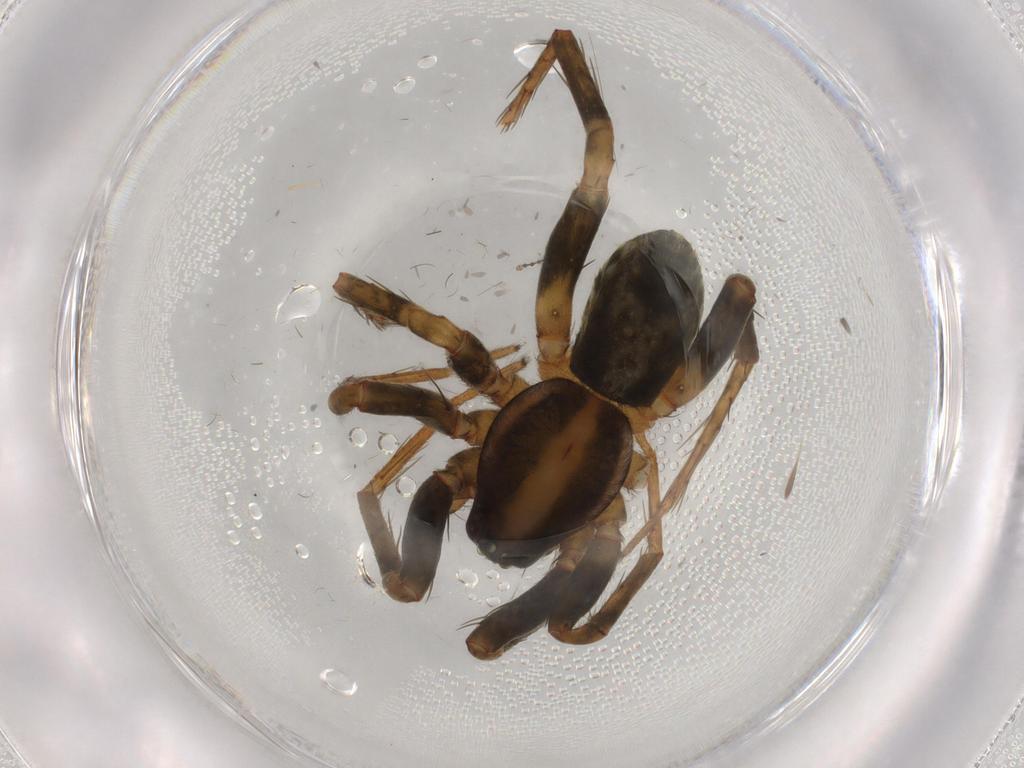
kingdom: Animalia
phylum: Arthropoda
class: Arachnida
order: Araneae
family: Anyphaenidae
